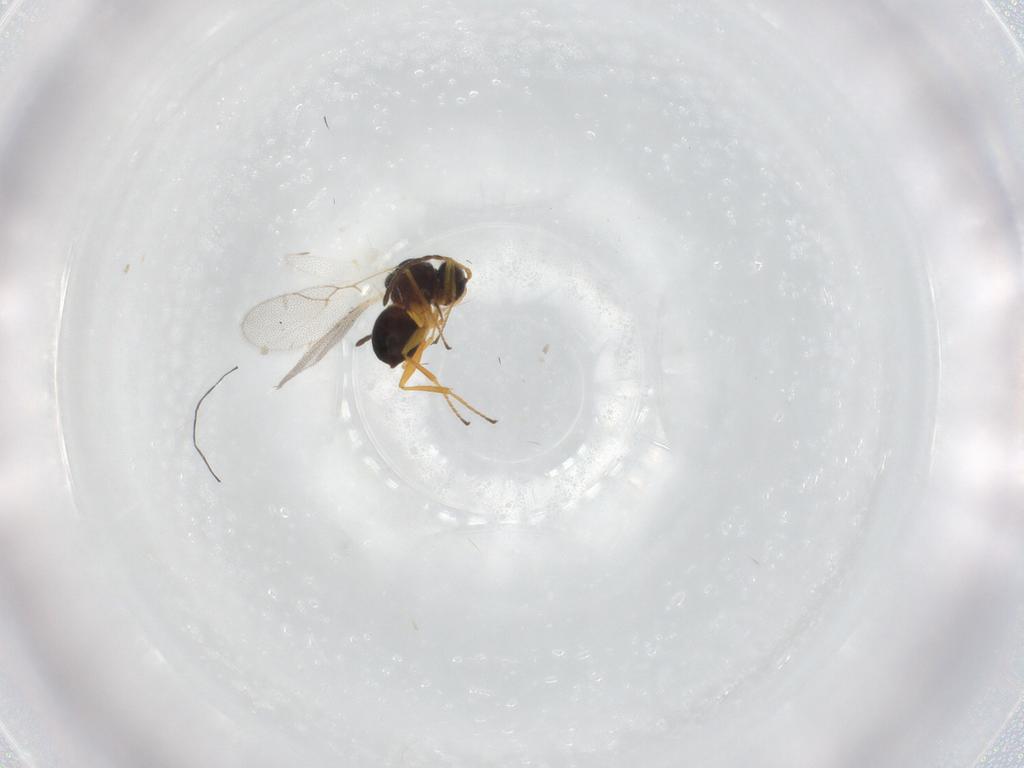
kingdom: Animalia
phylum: Arthropoda
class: Insecta
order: Hymenoptera
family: Figitidae
